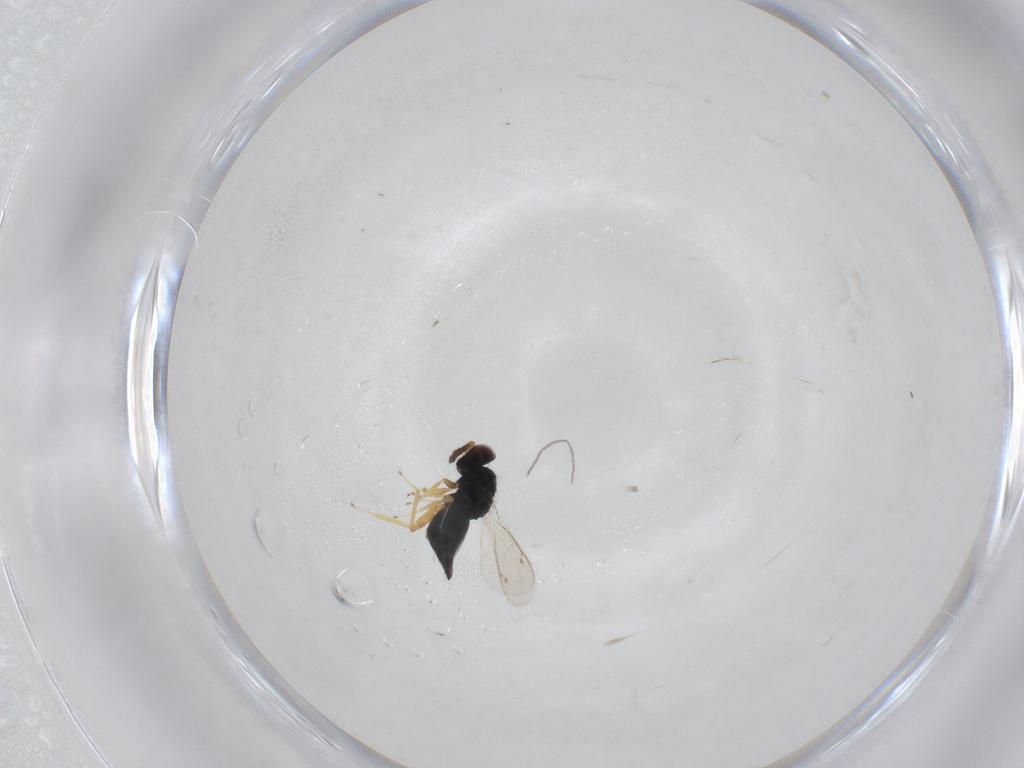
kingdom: Animalia
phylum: Arthropoda
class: Insecta
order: Hymenoptera
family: Eulophidae
